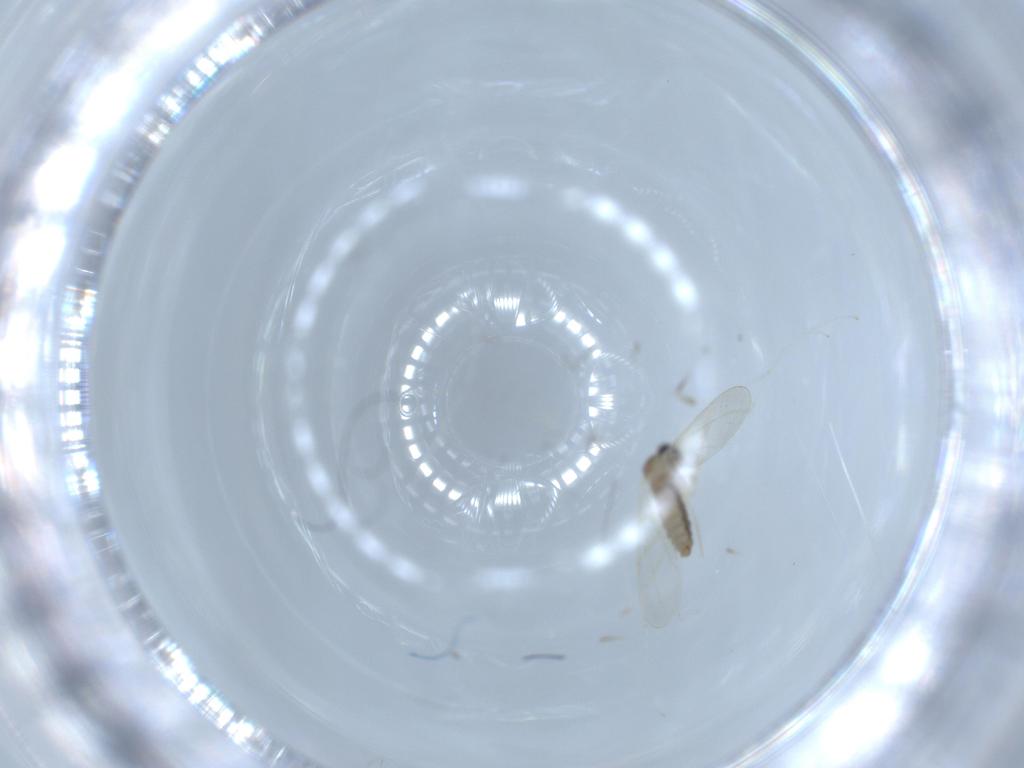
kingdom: Animalia
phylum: Arthropoda
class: Insecta
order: Diptera
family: Cecidomyiidae
